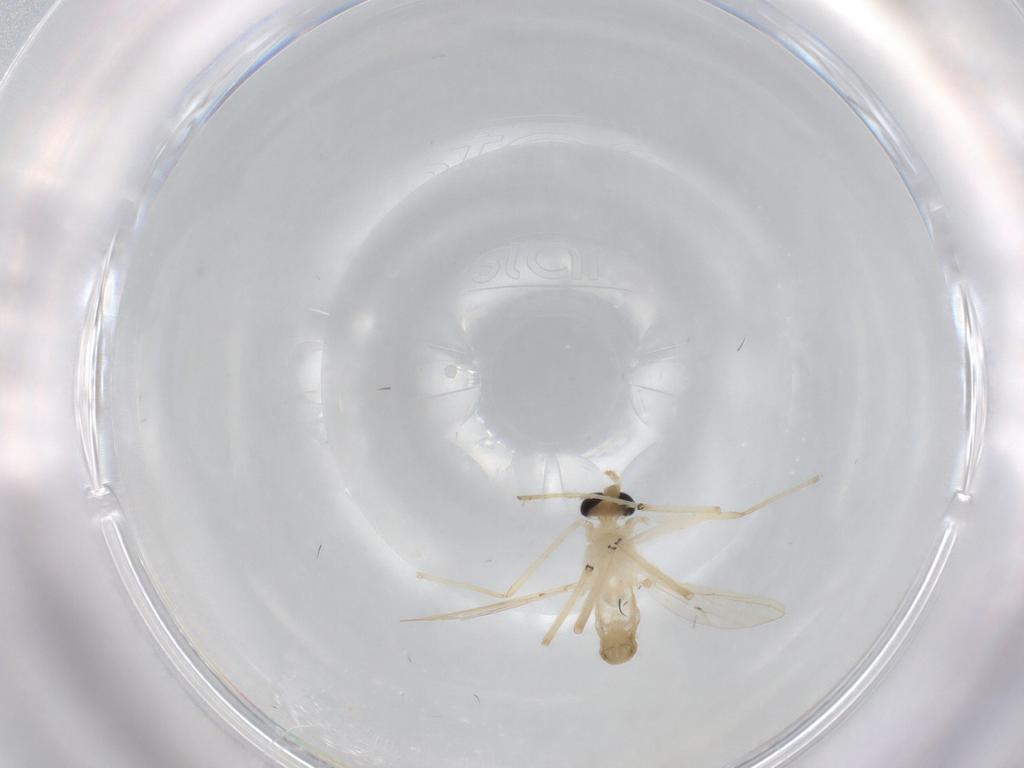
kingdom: Animalia
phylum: Arthropoda
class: Insecta
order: Diptera
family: Chironomidae
